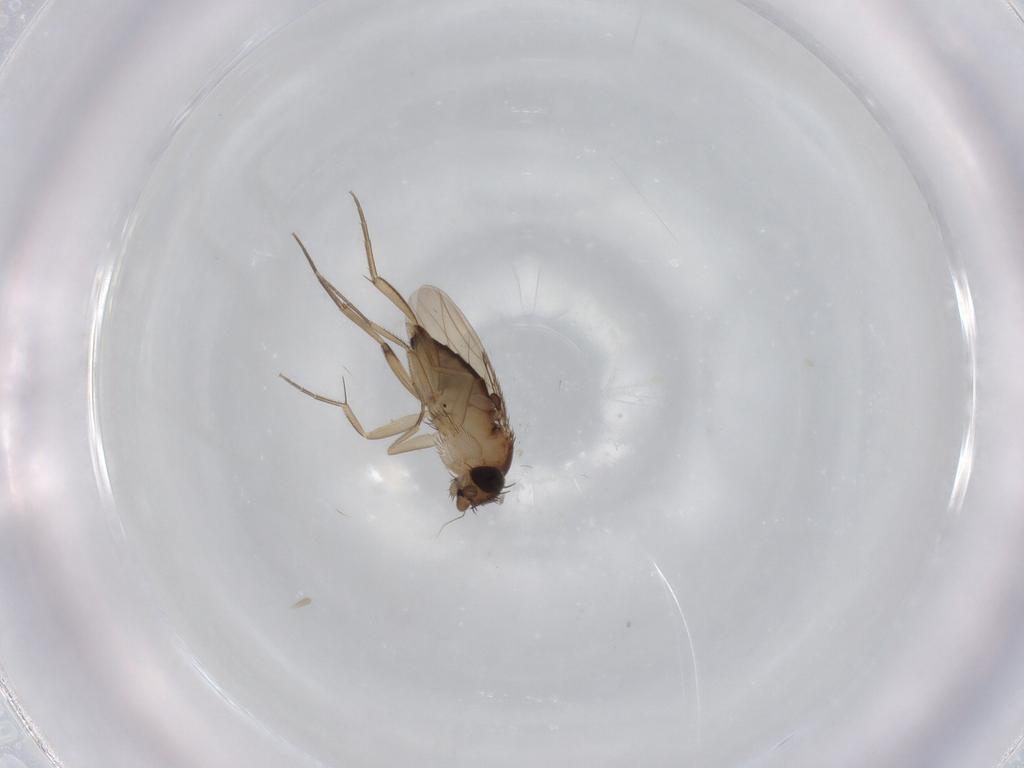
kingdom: Animalia
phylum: Arthropoda
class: Insecta
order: Diptera
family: Phoridae
